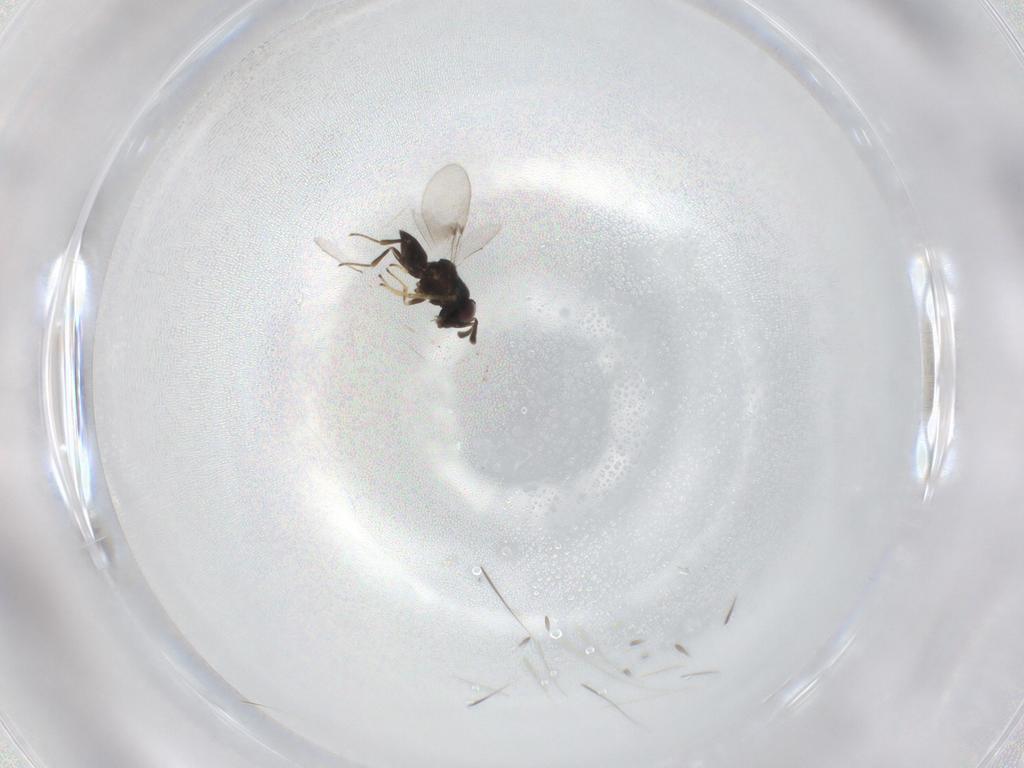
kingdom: Animalia
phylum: Arthropoda
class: Insecta
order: Hymenoptera
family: Encyrtidae
